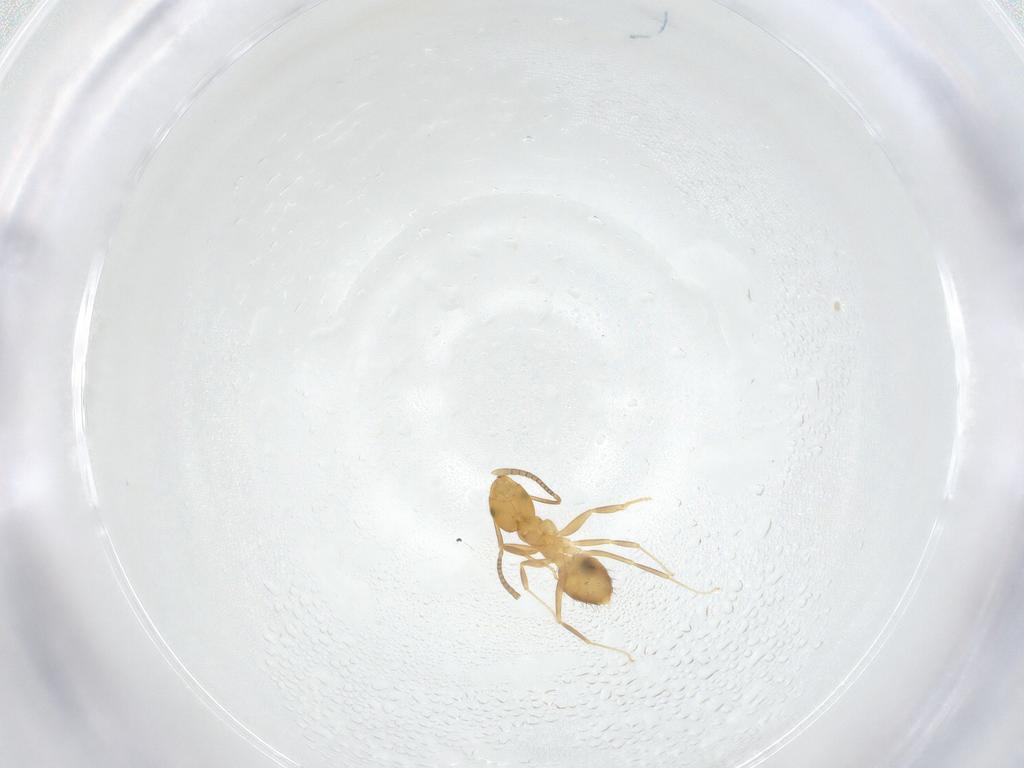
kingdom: Animalia
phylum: Arthropoda
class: Insecta
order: Hymenoptera
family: Formicidae
